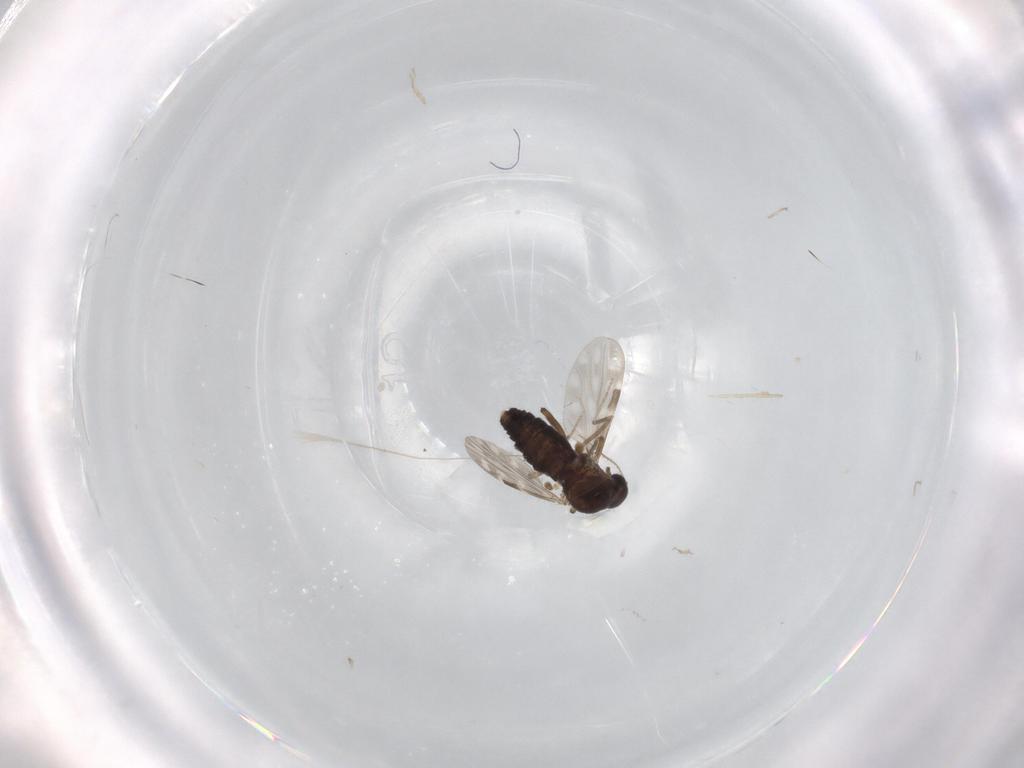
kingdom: Animalia
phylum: Arthropoda
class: Insecta
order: Diptera
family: Ceratopogonidae
